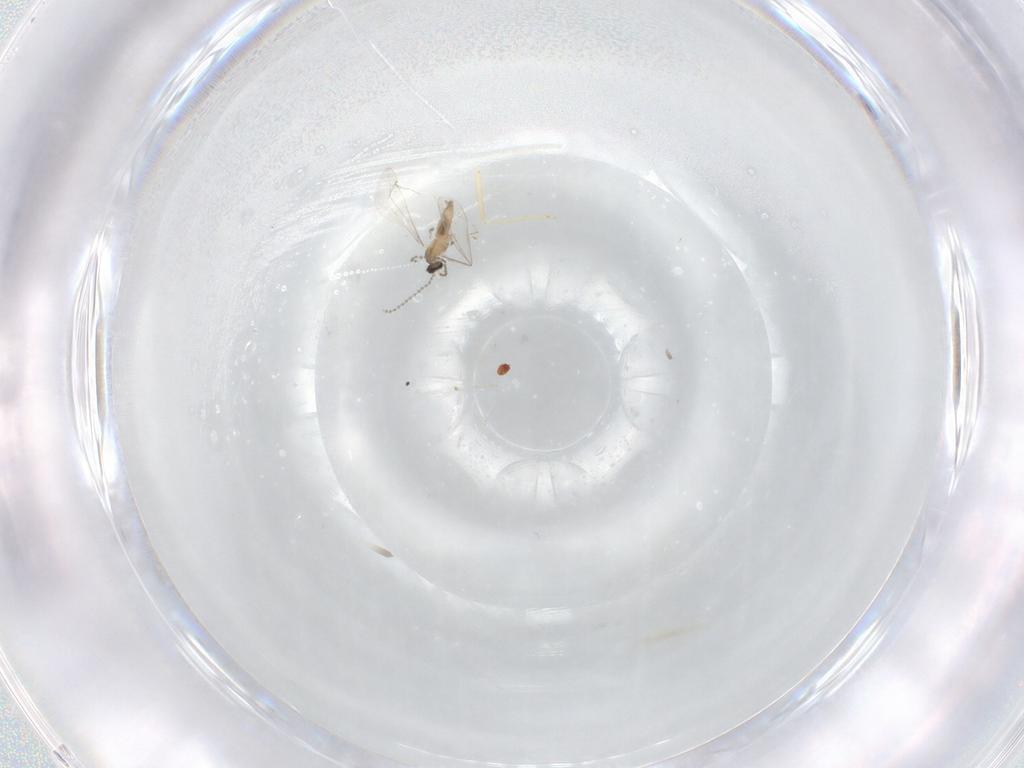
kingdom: Animalia
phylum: Arthropoda
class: Insecta
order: Diptera
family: Cecidomyiidae
